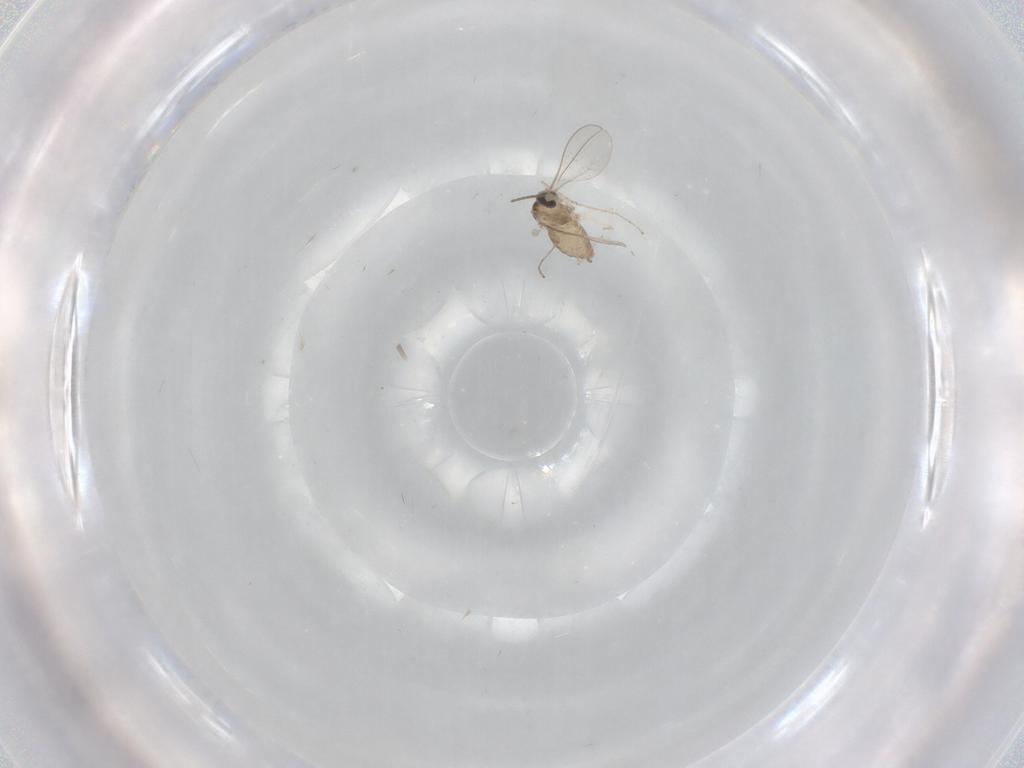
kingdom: Animalia
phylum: Arthropoda
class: Insecta
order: Diptera
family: Cecidomyiidae
